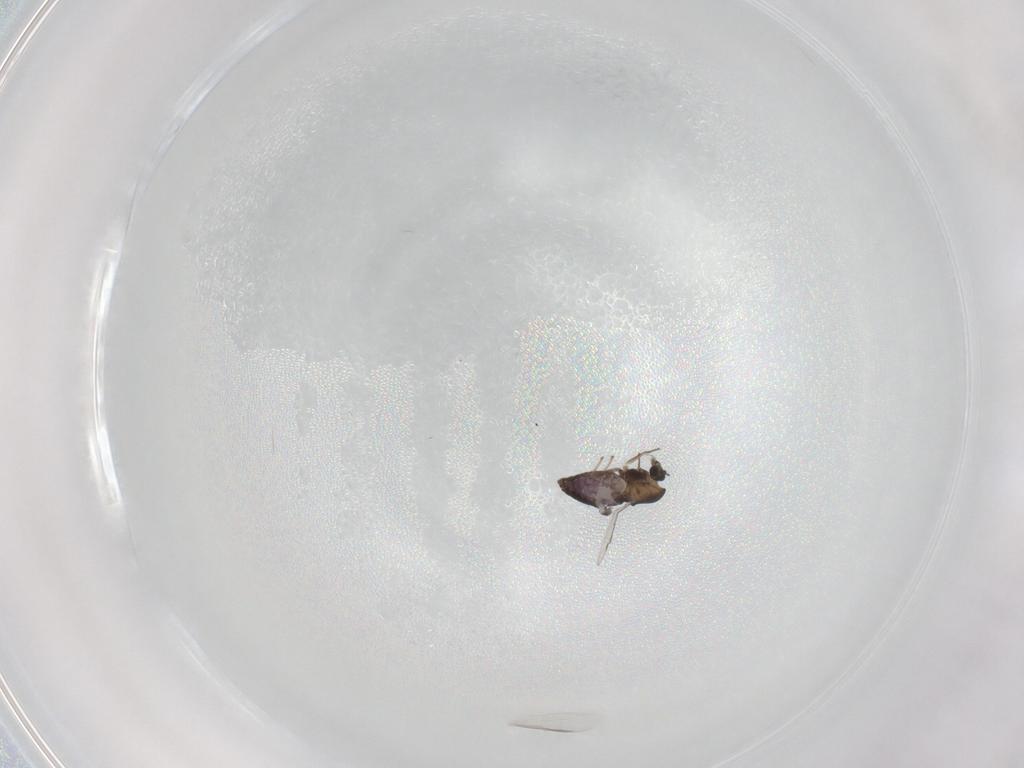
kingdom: Animalia
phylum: Arthropoda
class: Insecta
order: Diptera
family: Chironomidae
